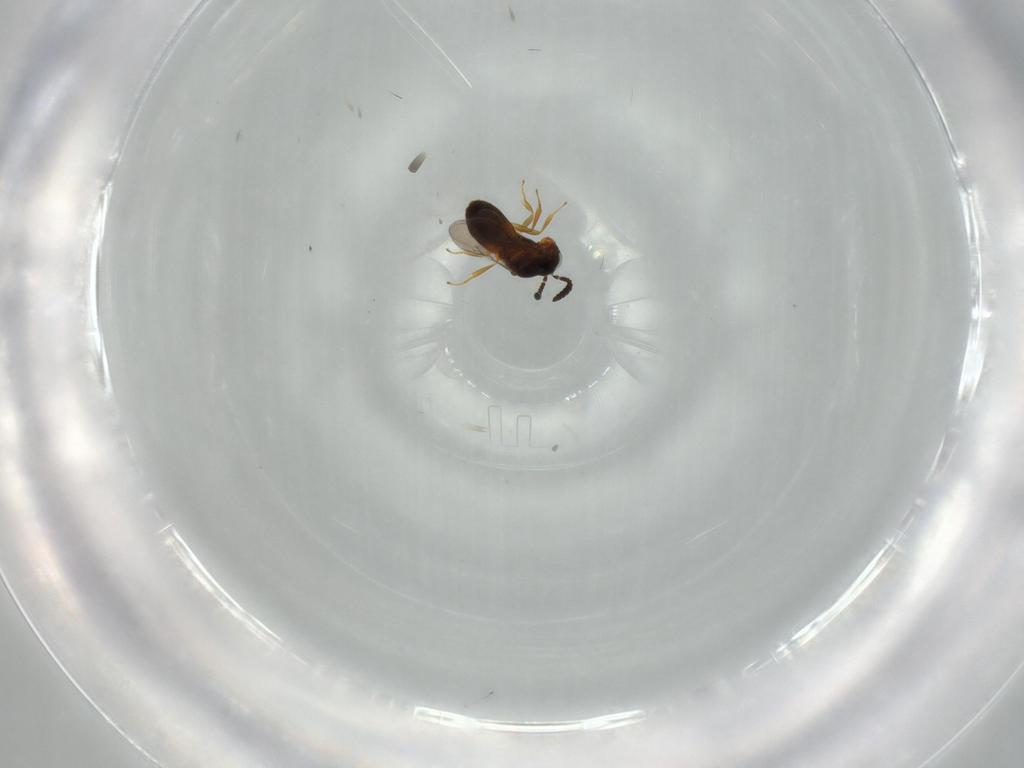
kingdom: Animalia
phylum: Arthropoda
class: Insecta
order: Hymenoptera
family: Scelionidae
